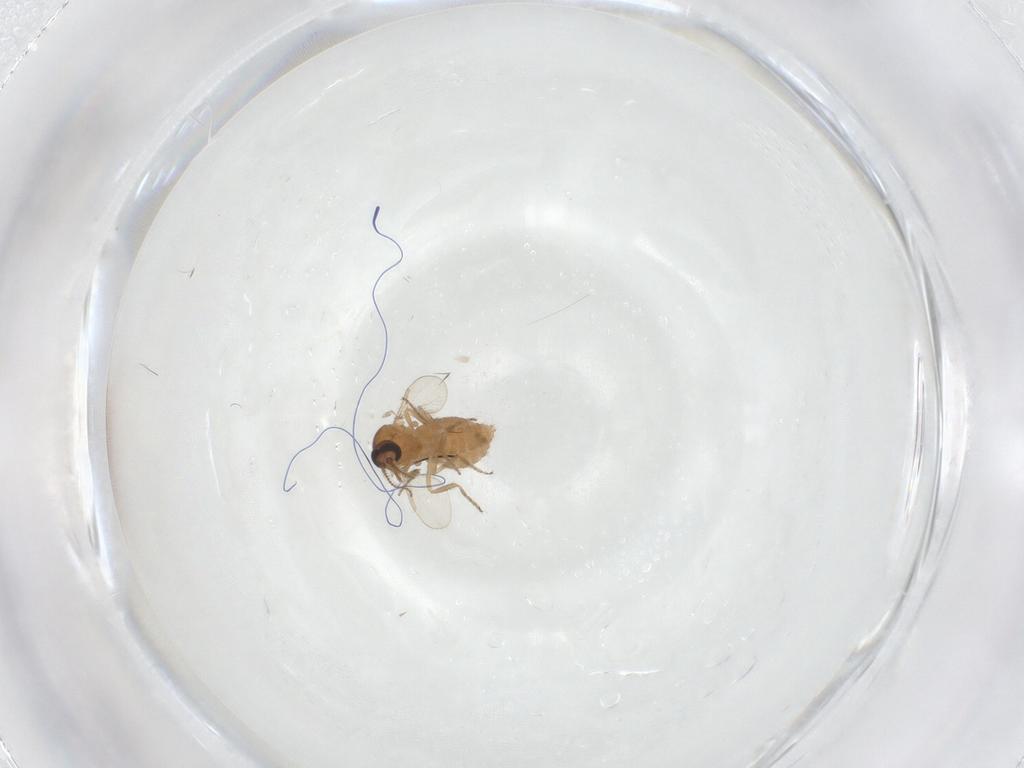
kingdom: Animalia
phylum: Arthropoda
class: Insecta
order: Diptera
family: Ceratopogonidae
